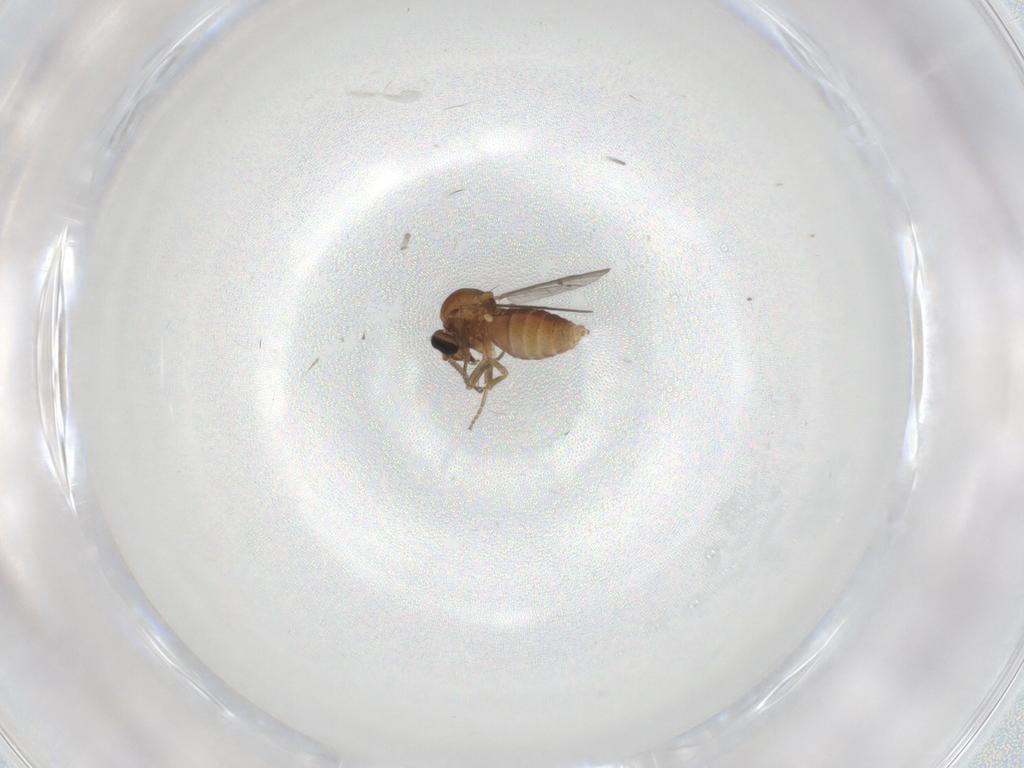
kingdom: Animalia
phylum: Arthropoda
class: Insecta
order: Diptera
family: Ceratopogonidae
